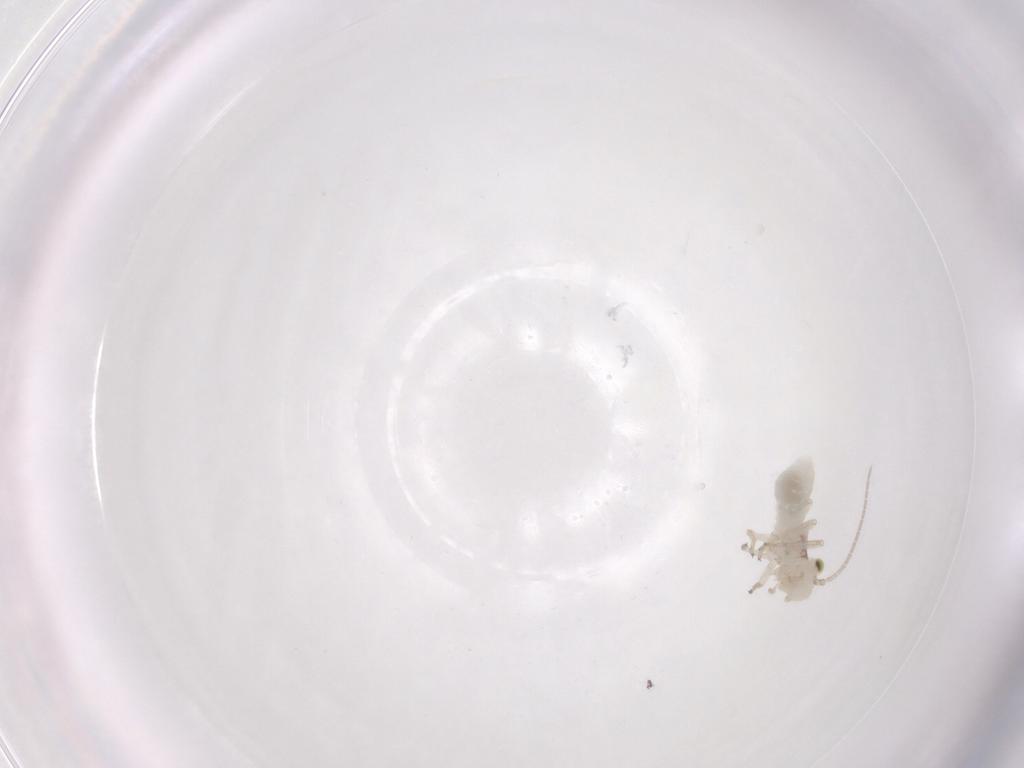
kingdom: Animalia
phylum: Arthropoda
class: Insecta
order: Psocodea
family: Caeciliusidae
